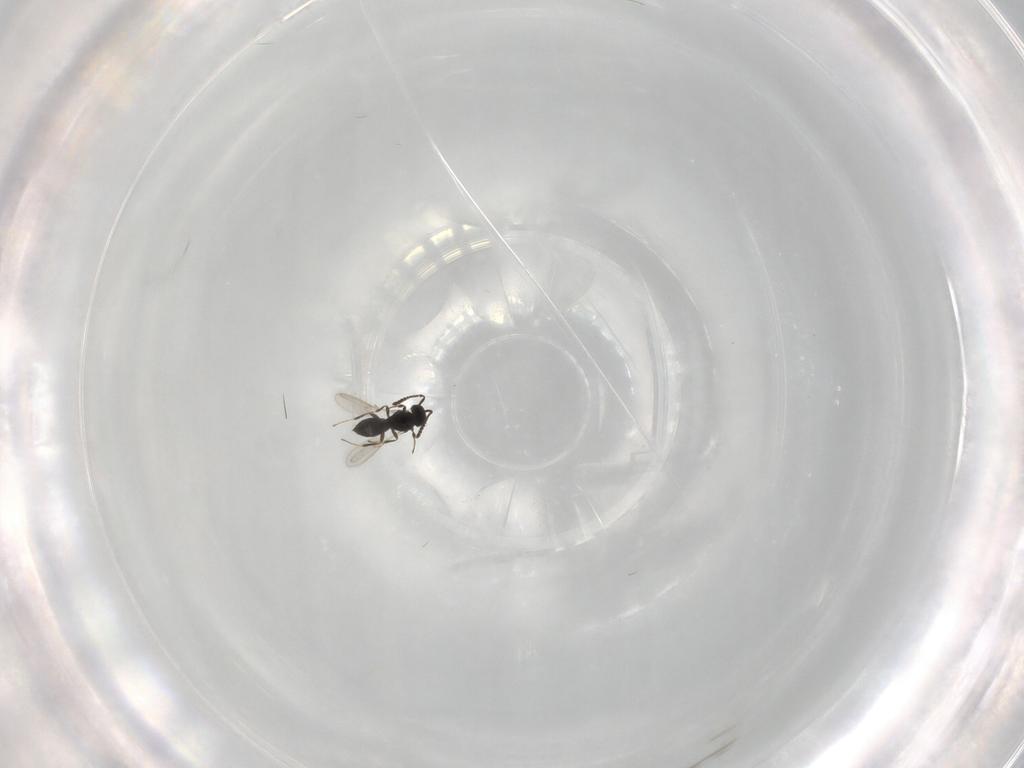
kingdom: Animalia
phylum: Arthropoda
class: Insecta
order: Hymenoptera
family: Scelionidae
